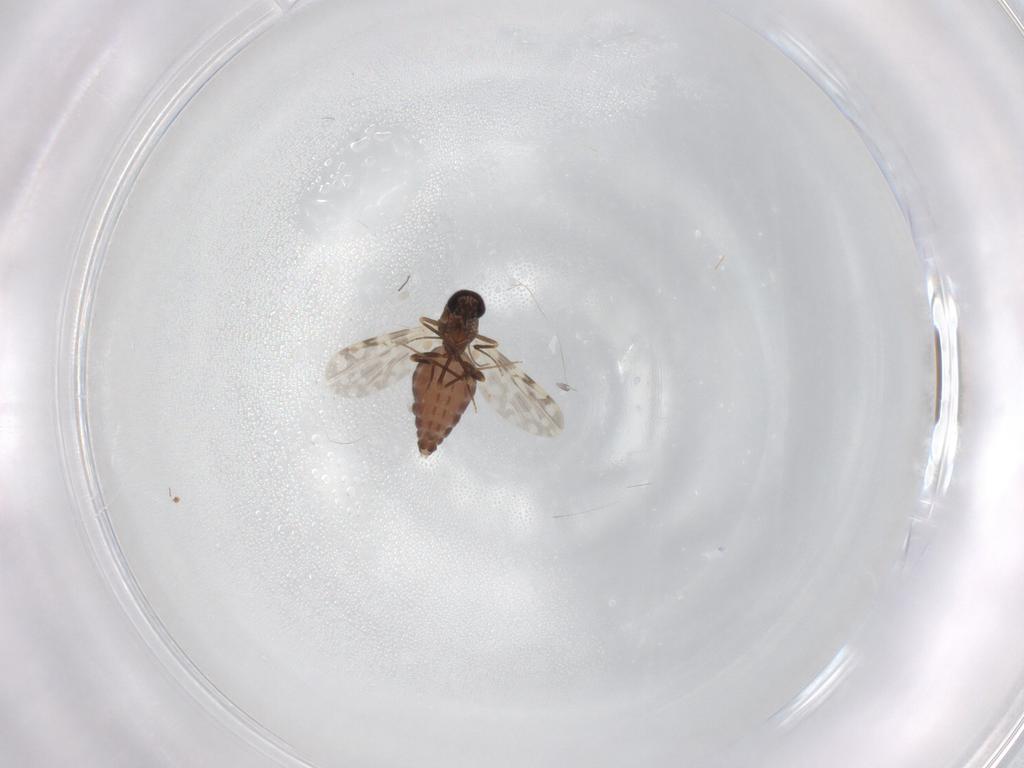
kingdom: Animalia
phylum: Arthropoda
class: Insecta
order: Diptera
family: Ceratopogonidae
